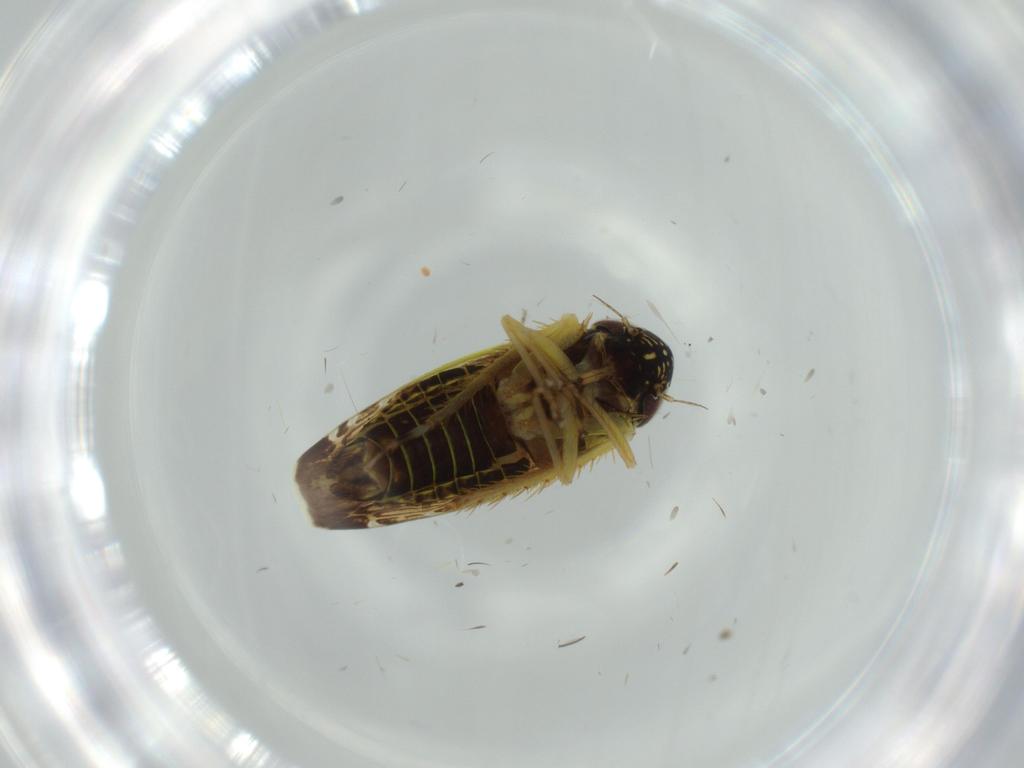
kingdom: Animalia
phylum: Arthropoda
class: Insecta
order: Hemiptera
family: Cicadellidae
